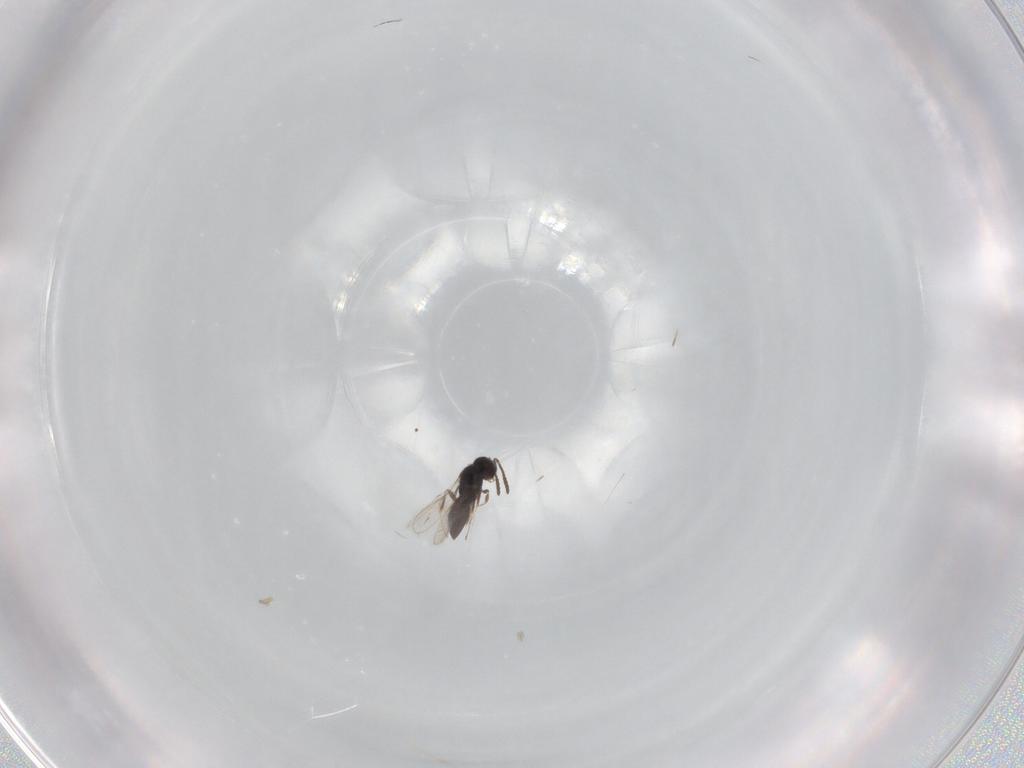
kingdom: Animalia
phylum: Arthropoda
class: Insecta
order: Hymenoptera
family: Scelionidae
